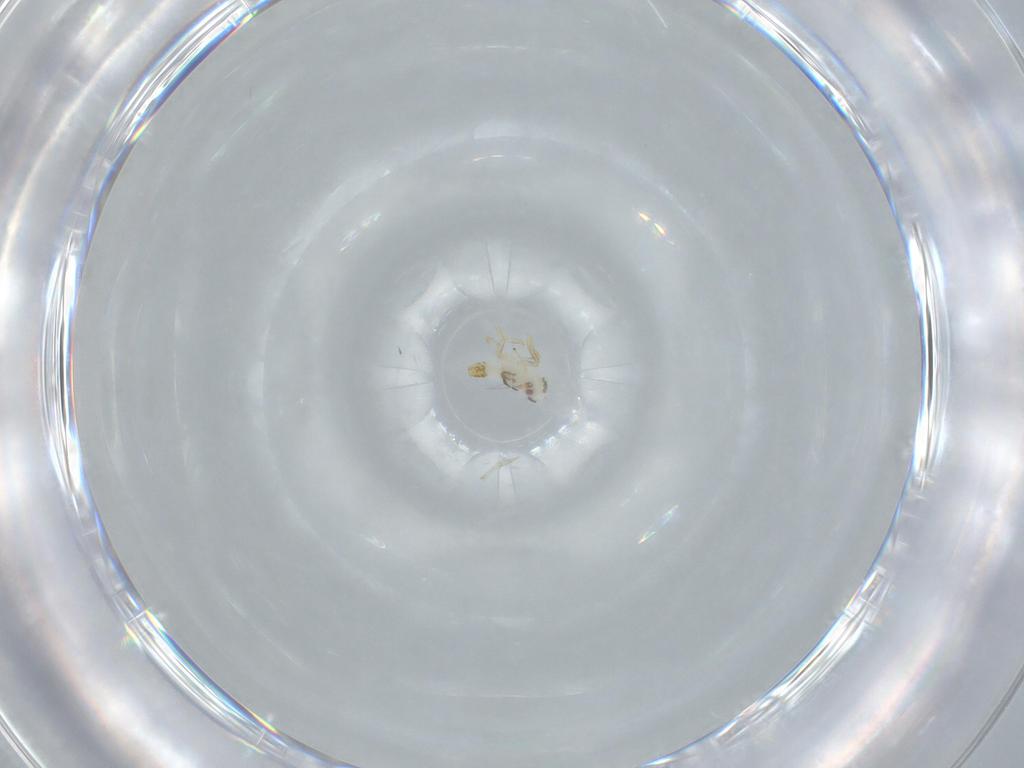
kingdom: Animalia
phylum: Arthropoda
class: Insecta
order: Hemiptera
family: Delphacidae
